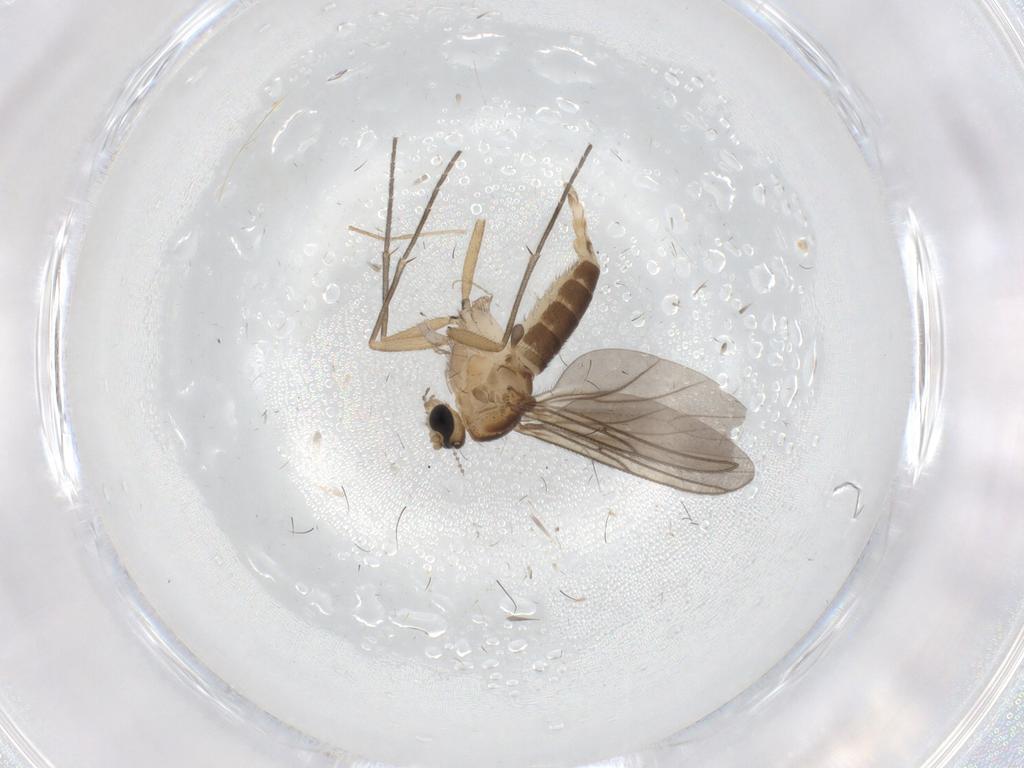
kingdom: Animalia
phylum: Arthropoda
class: Insecta
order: Diptera
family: Sciaridae
